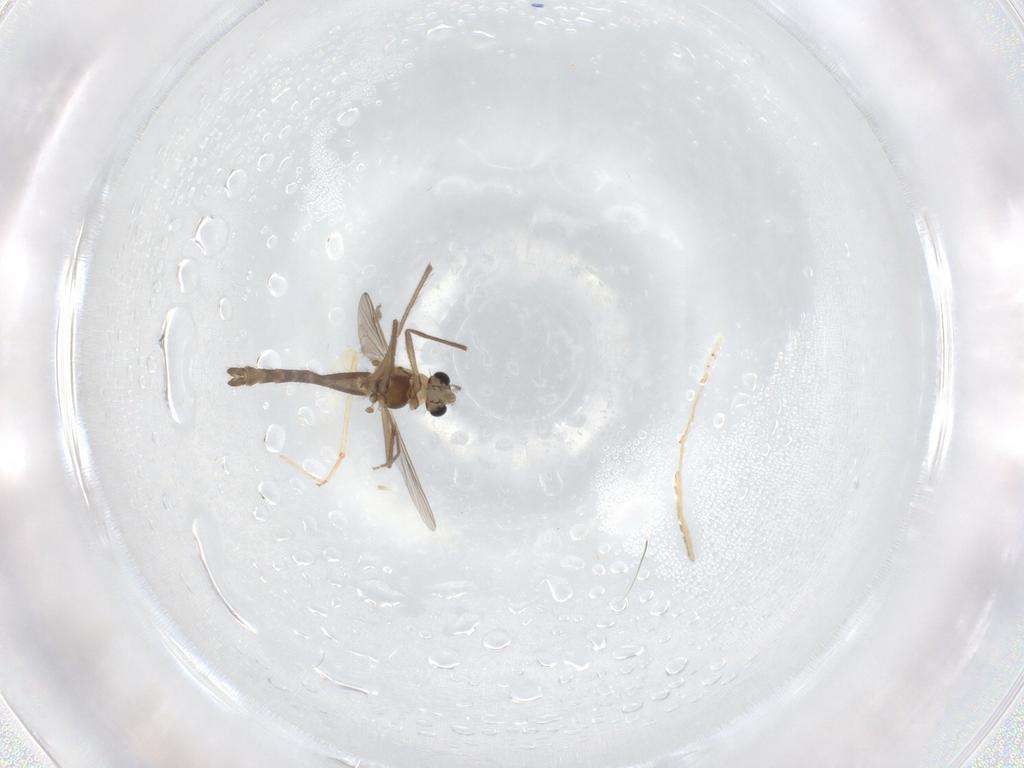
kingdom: Animalia
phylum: Arthropoda
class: Insecta
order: Diptera
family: Chironomidae
